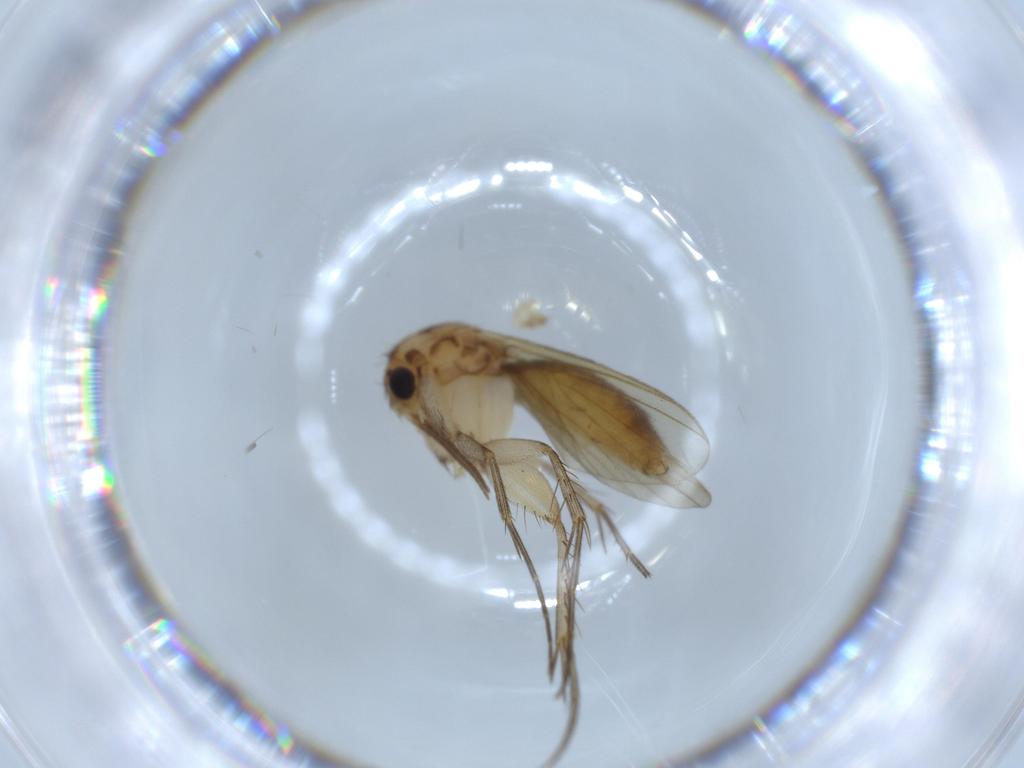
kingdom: Animalia
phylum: Arthropoda
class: Insecta
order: Diptera
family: Mycetophilidae
